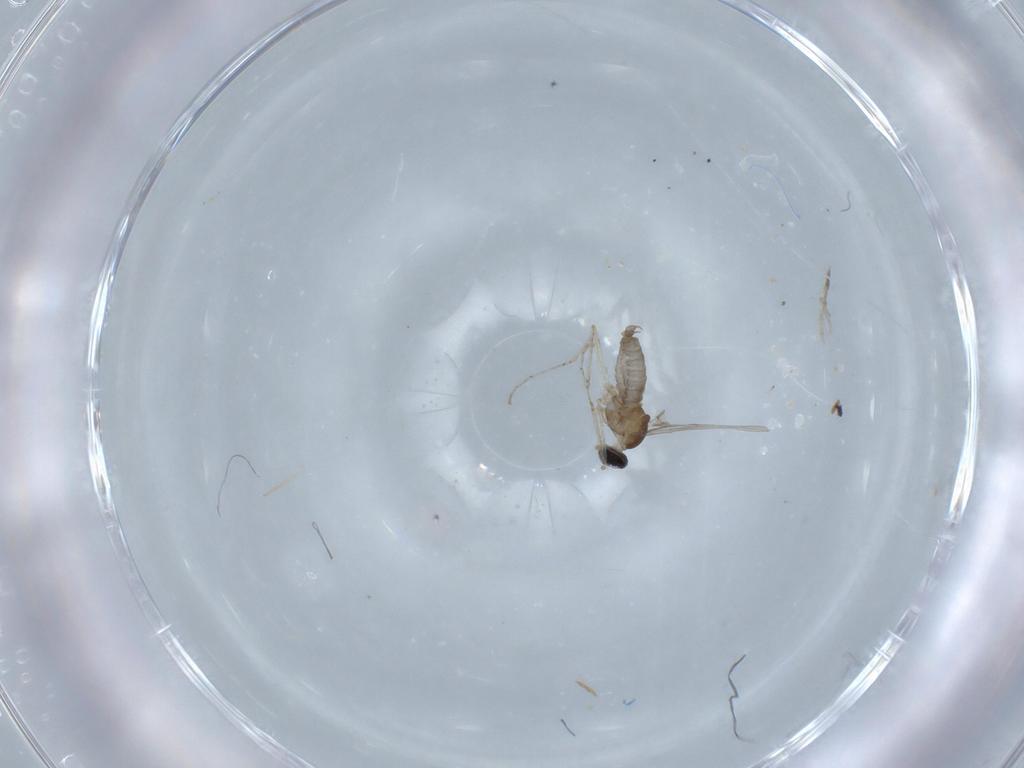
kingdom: Animalia
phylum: Arthropoda
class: Insecta
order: Diptera
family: Cecidomyiidae
